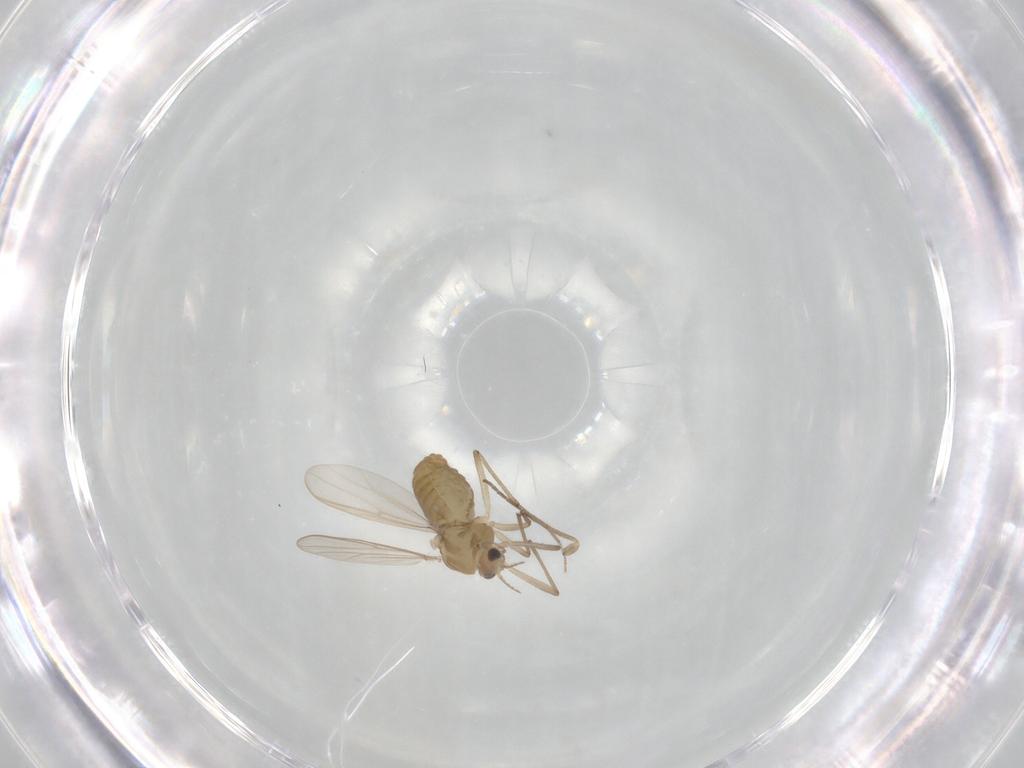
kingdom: Animalia
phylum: Arthropoda
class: Insecta
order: Diptera
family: Chironomidae
